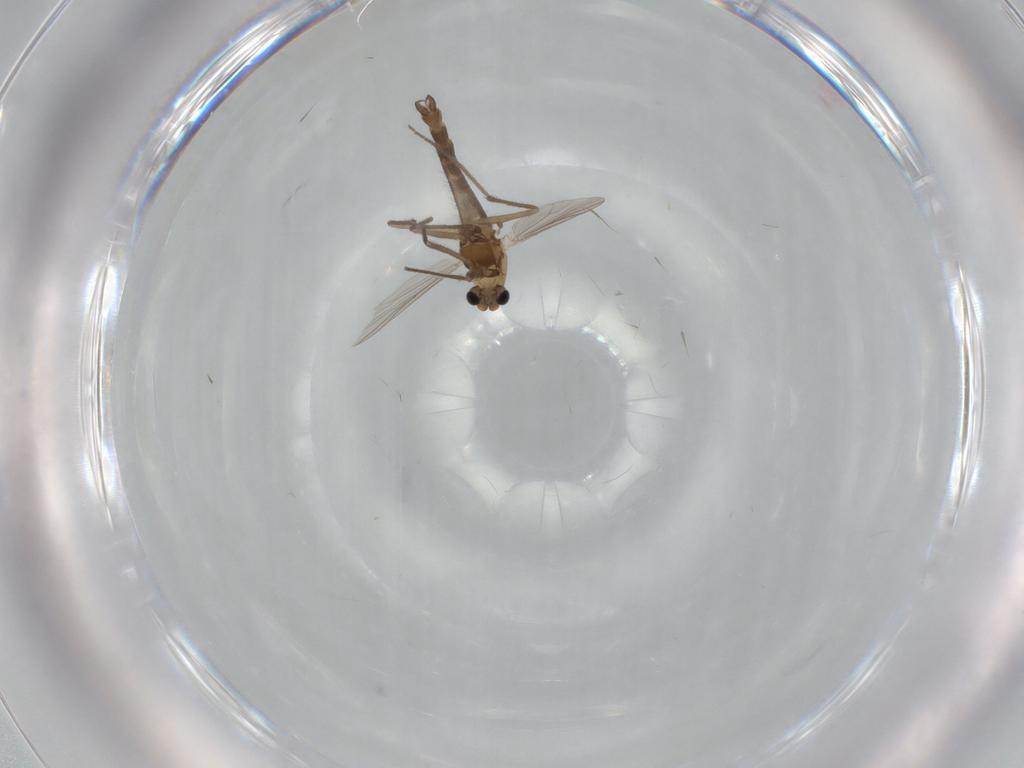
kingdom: Animalia
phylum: Arthropoda
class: Insecta
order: Diptera
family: Chironomidae
